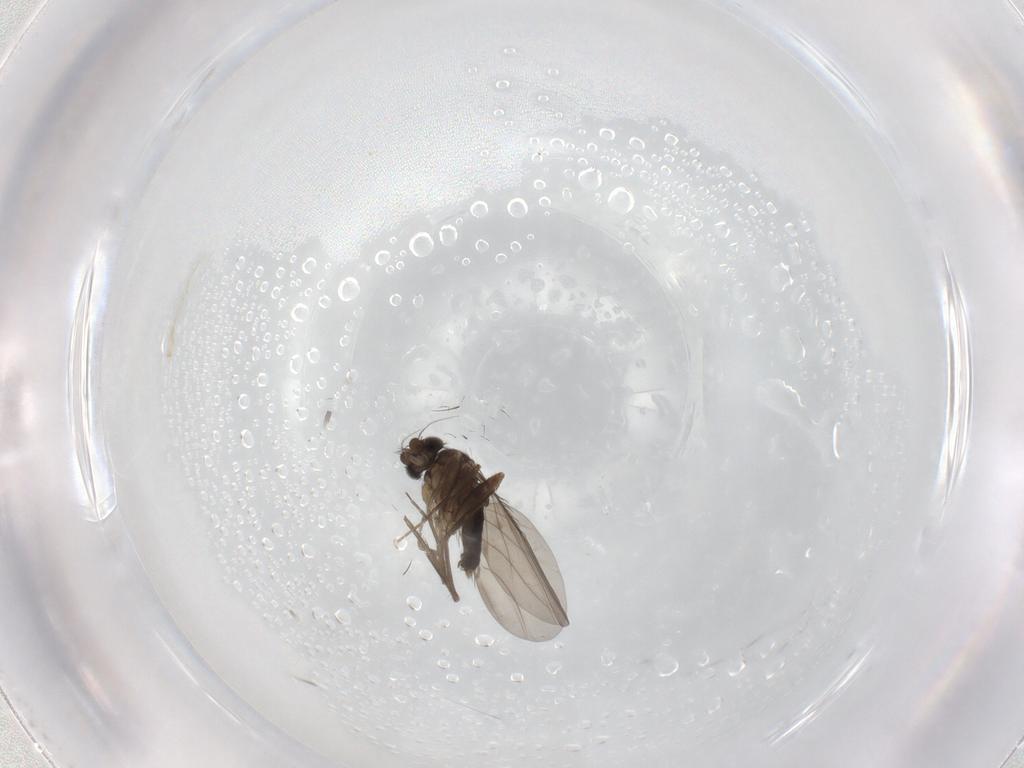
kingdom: Animalia
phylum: Arthropoda
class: Insecta
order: Diptera
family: Phoridae
